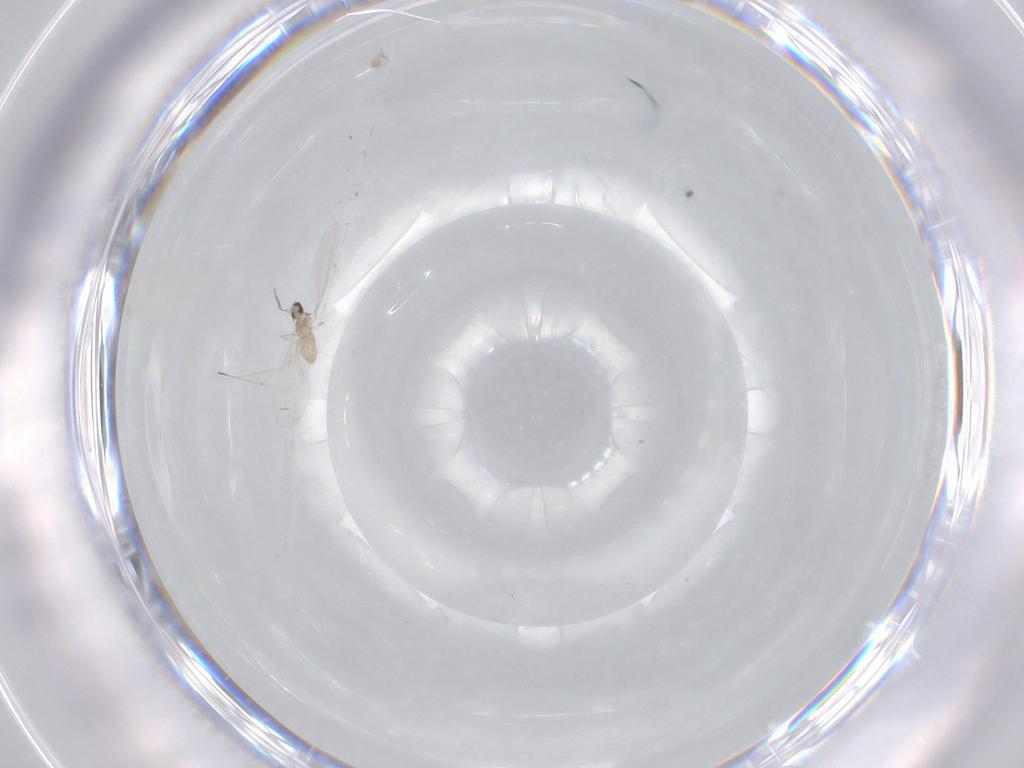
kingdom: Animalia
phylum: Arthropoda
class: Insecta
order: Diptera
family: Cecidomyiidae
